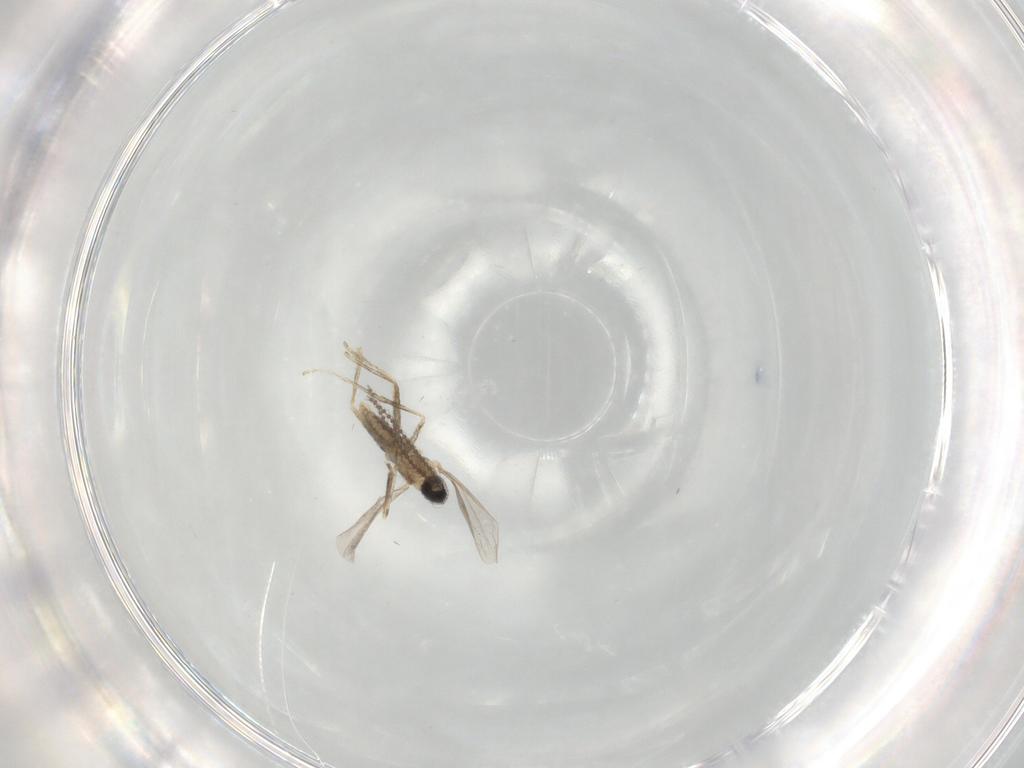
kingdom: Animalia
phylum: Arthropoda
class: Insecta
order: Diptera
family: Cecidomyiidae
